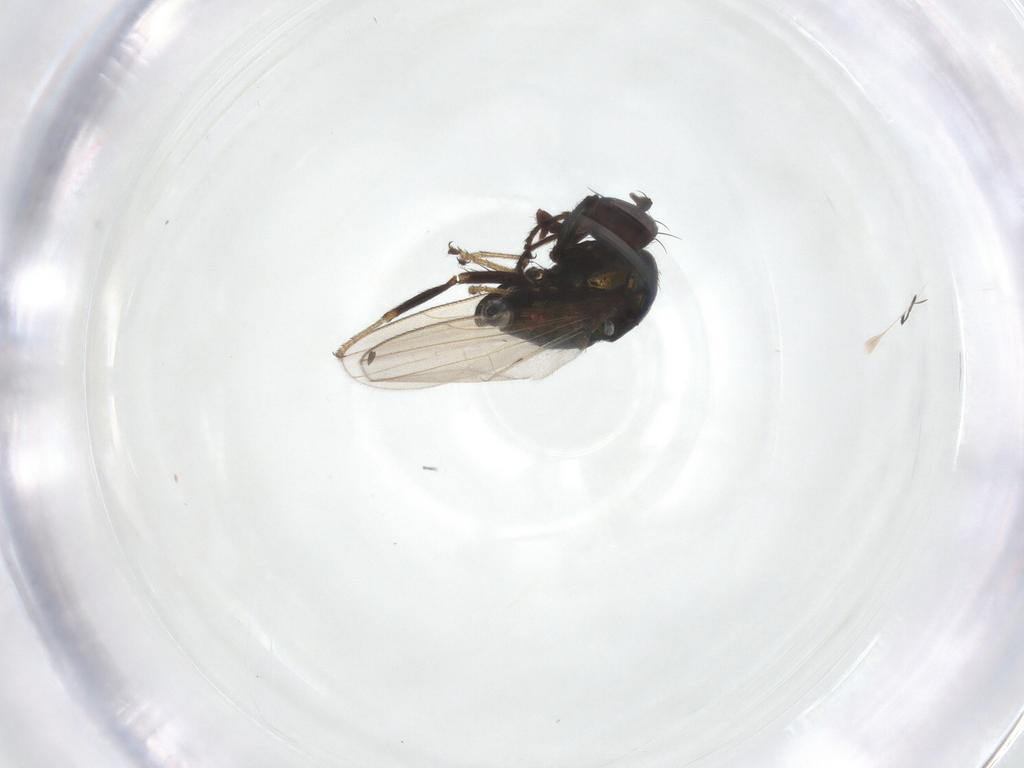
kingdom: Animalia
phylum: Arthropoda
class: Insecta
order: Diptera
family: Ephydridae
